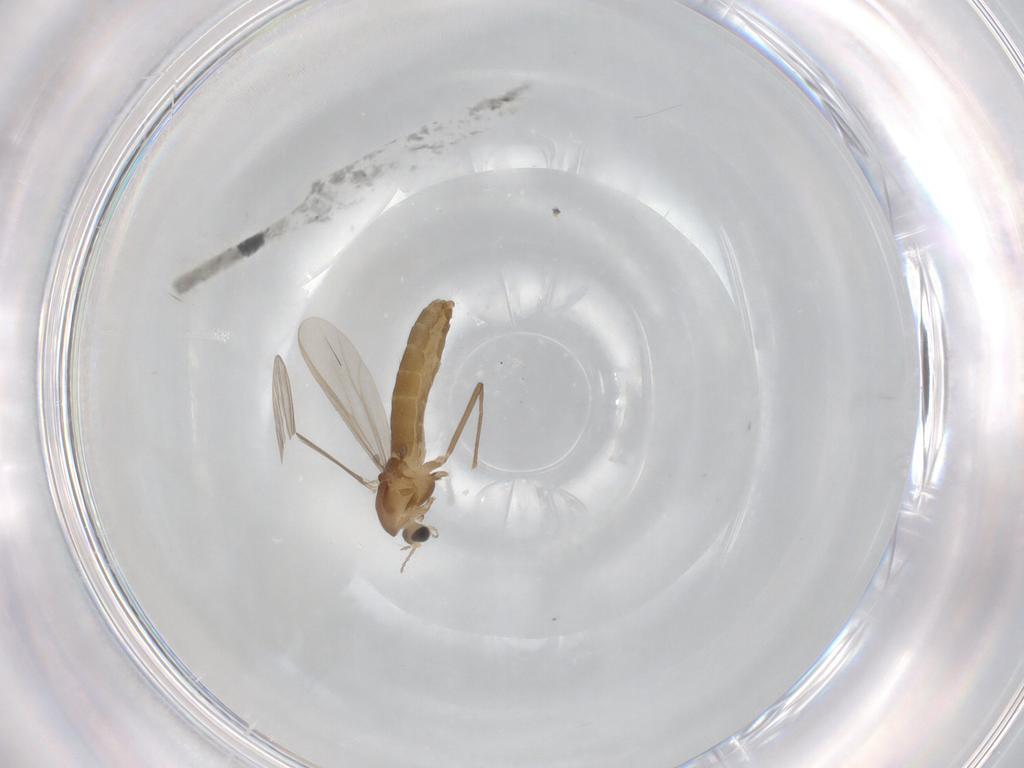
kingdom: Animalia
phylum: Arthropoda
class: Insecta
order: Diptera
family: Chironomidae
